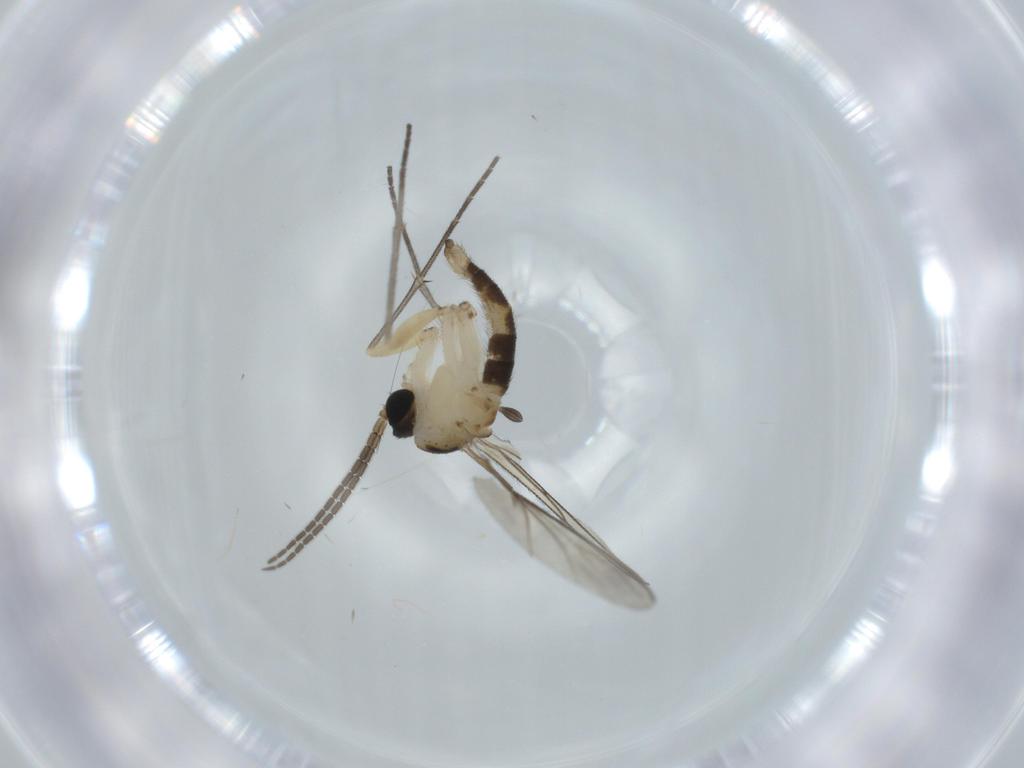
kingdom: Animalia
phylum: Arthropoda
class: Insecta
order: Diptera
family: Sciaridae
